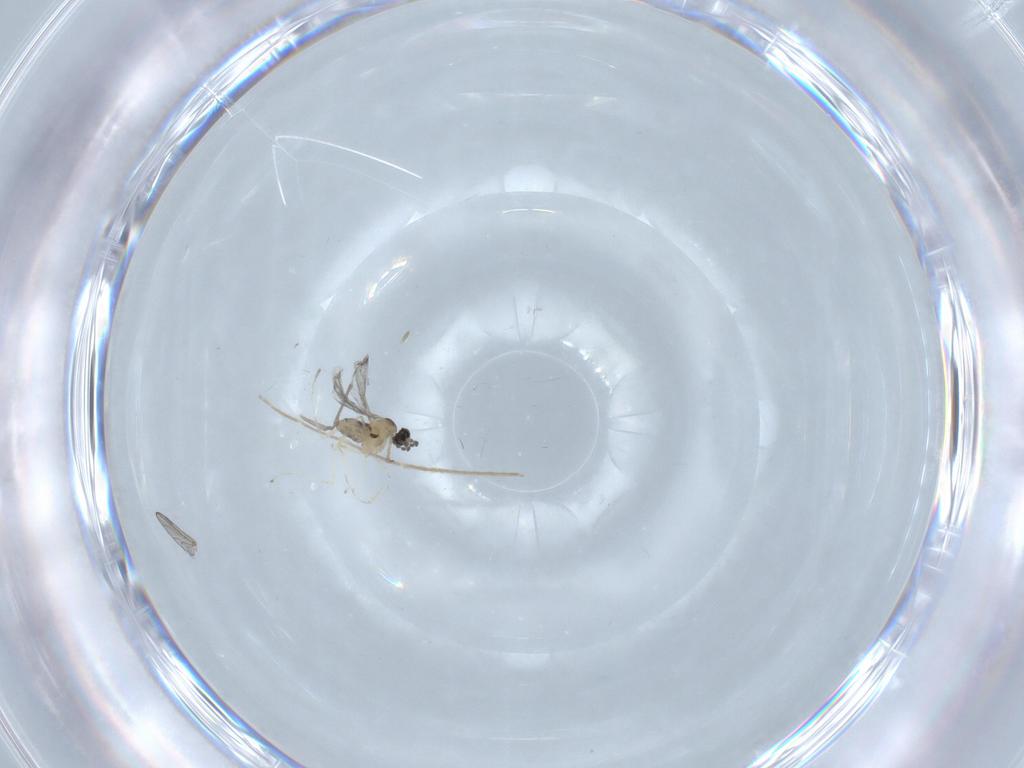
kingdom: Animalia
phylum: Arthropoda
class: Insecta
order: Diptera
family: Cecidomyiidae
